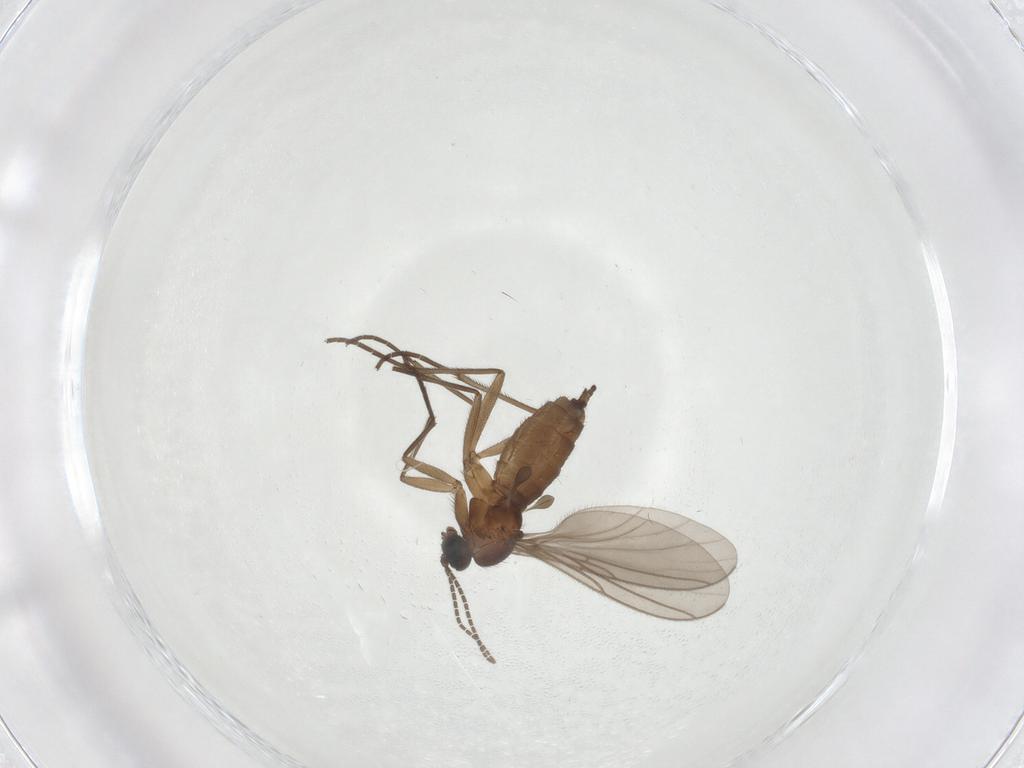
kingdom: Animalia
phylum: Arthropoda
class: Insecta
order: Diptera
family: Sciaridae
